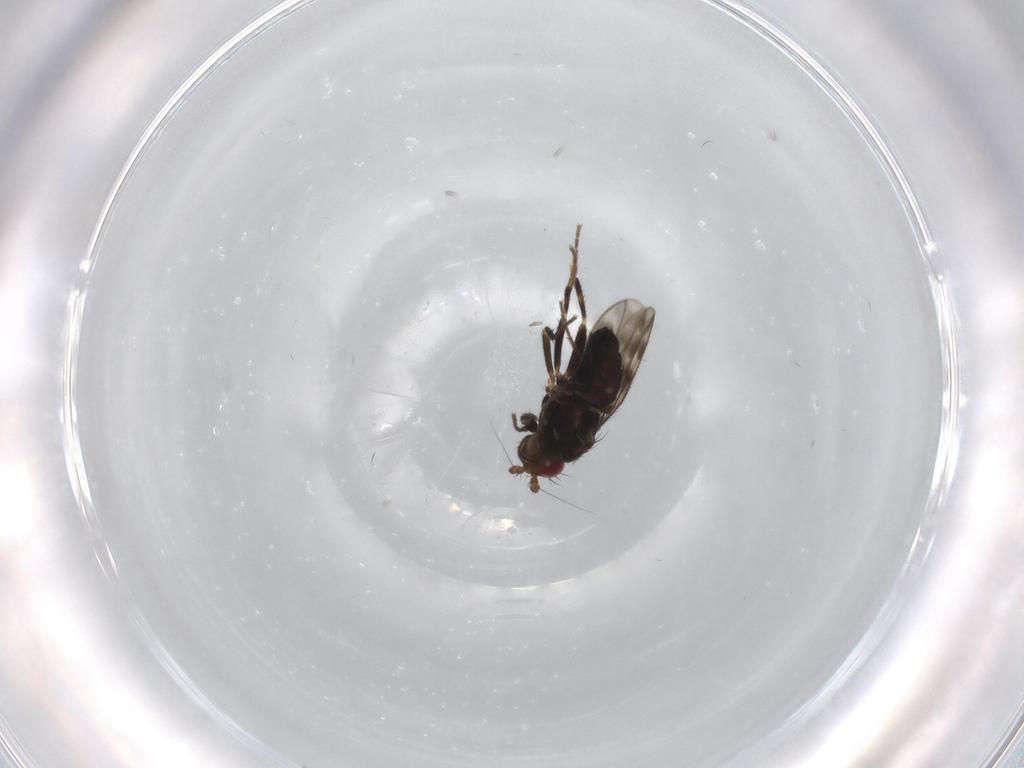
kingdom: Animalia
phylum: Arthropoda
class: Insecta
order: Diptera
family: Sphaeroceridae
